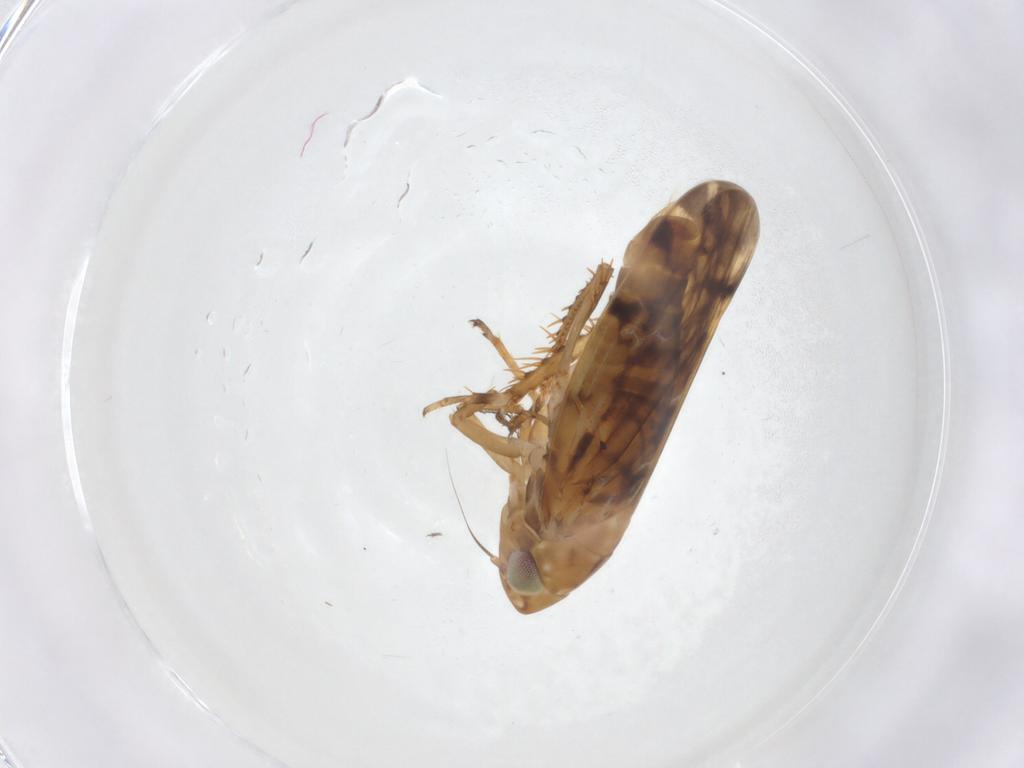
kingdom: Animalia
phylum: Arthropoda
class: Insecta
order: Hemiptera
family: Cicadellidae
